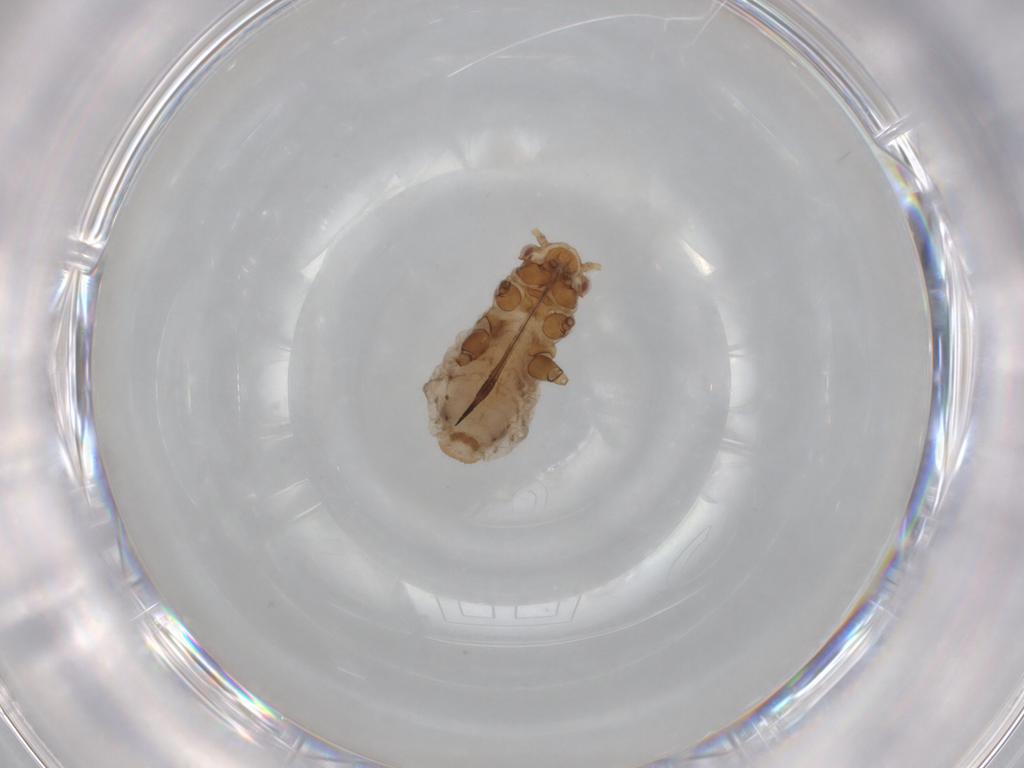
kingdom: Animalia
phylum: Arthropoda
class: Insecta
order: Hemiptera
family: Aphididae
